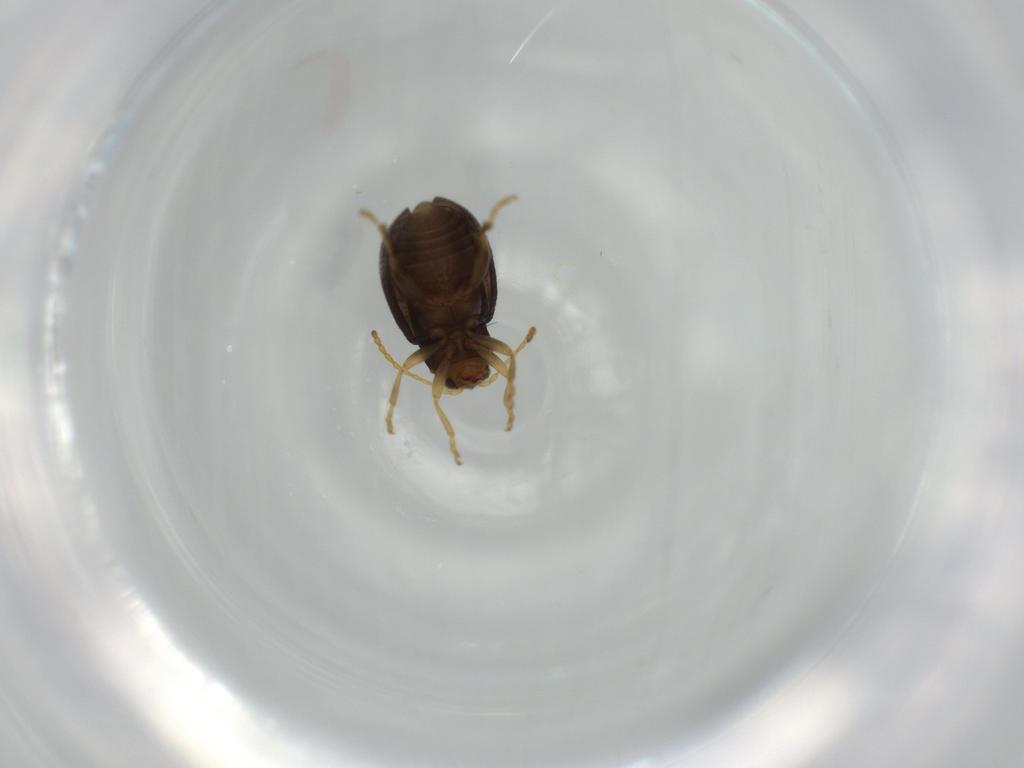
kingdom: Animalia
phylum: Arthropoda
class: Insecta
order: Coleoptera
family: Chrysomelidae
